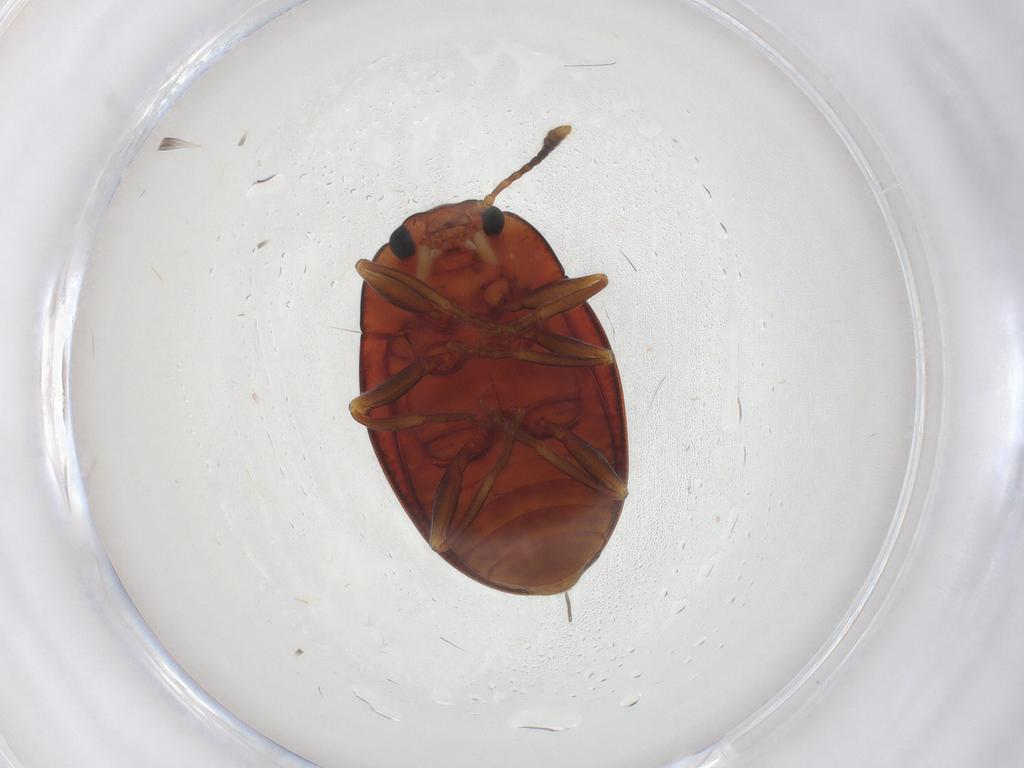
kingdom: Animalia
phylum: Arthropoda
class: Insecta
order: Coleoptera
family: Erotylidae
